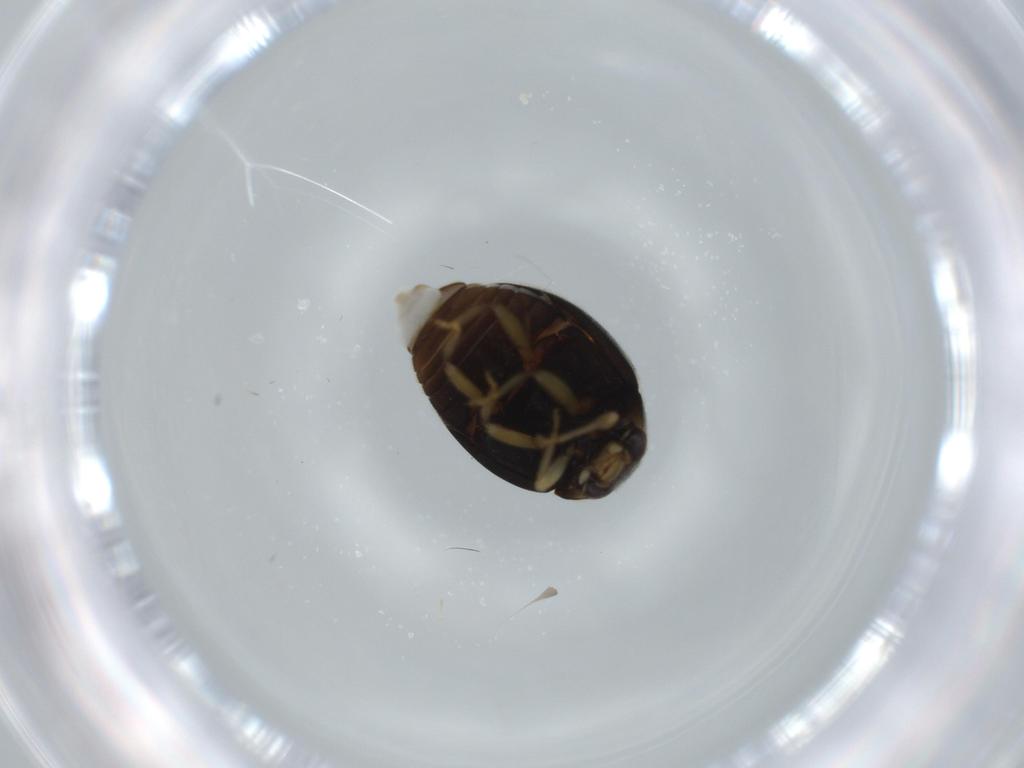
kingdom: Animalia
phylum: Arthropoda
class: Insecta
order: Coleoptera
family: Coccinellidae
